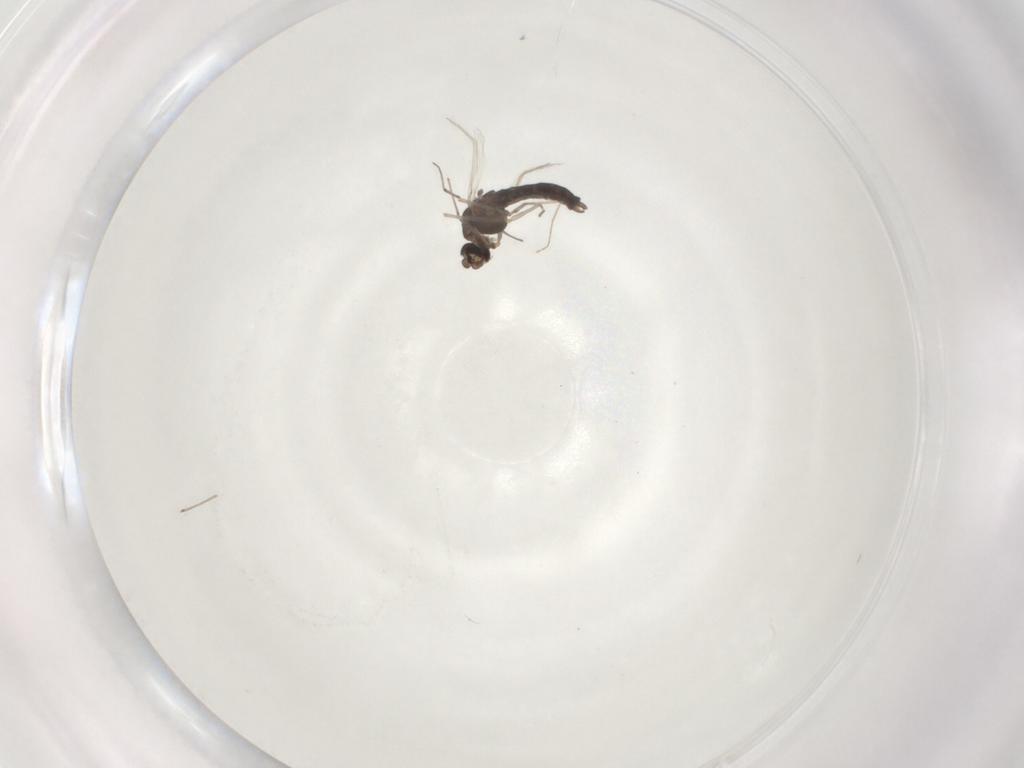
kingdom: Animalia
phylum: Arthropoda
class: Insecta
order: Diptera
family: Chironomidae
